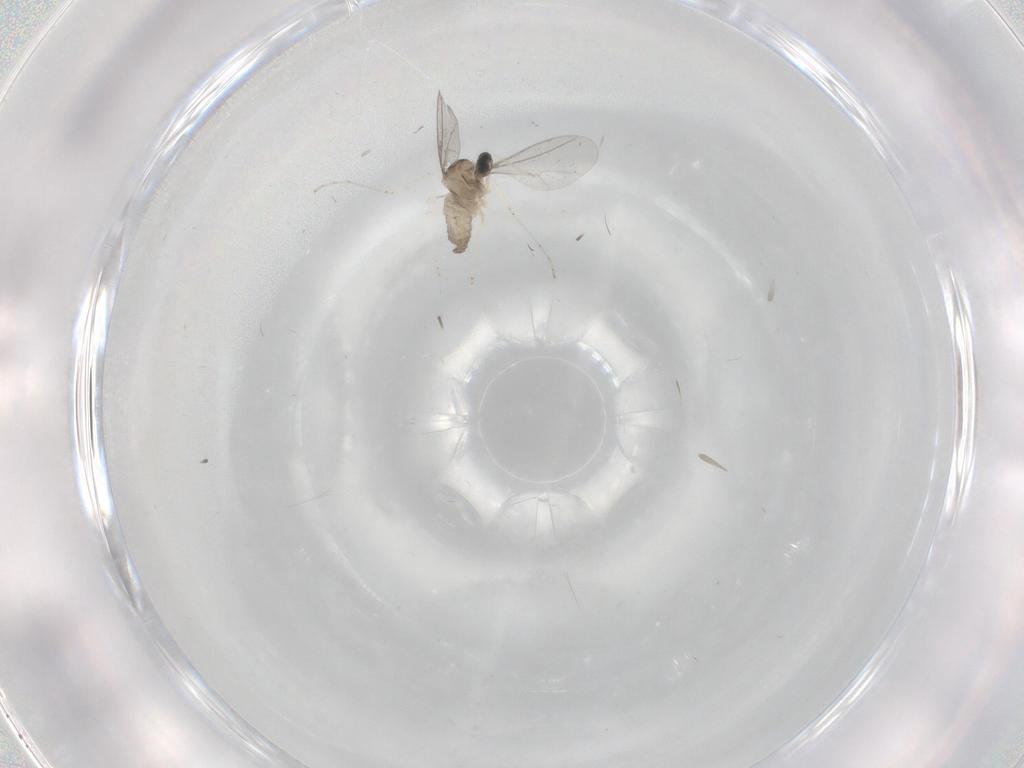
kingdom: Animalia
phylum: Arthropoda
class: Insecta
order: Diptera
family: Cecidomyiidae
